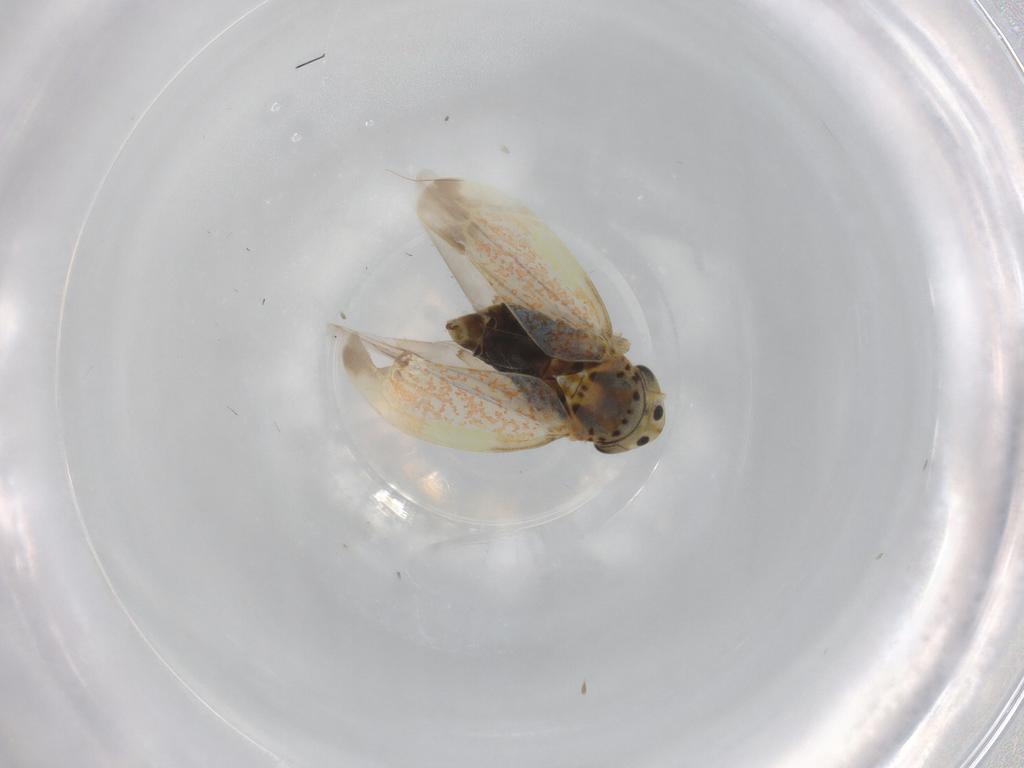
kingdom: Animalia
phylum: Arthropoda
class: Insecta
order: Hemiptera
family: Cicadellidae
